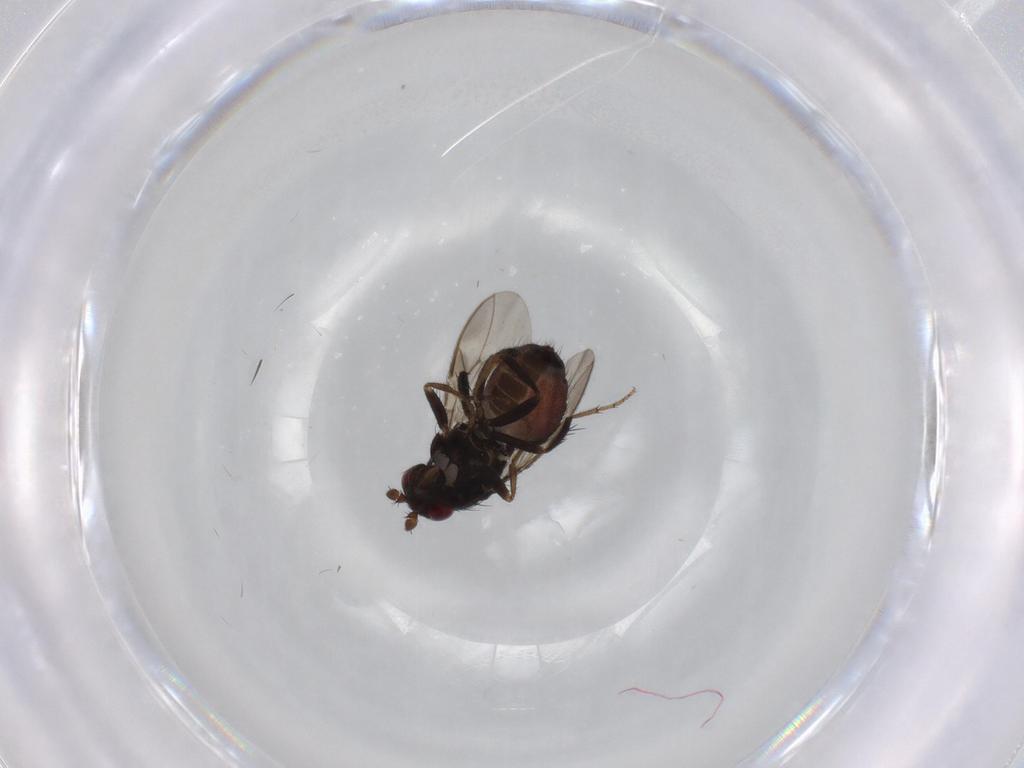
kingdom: Animalia
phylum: Arthropoda
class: Insecta
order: Diptera
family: Sphaeroceridae
